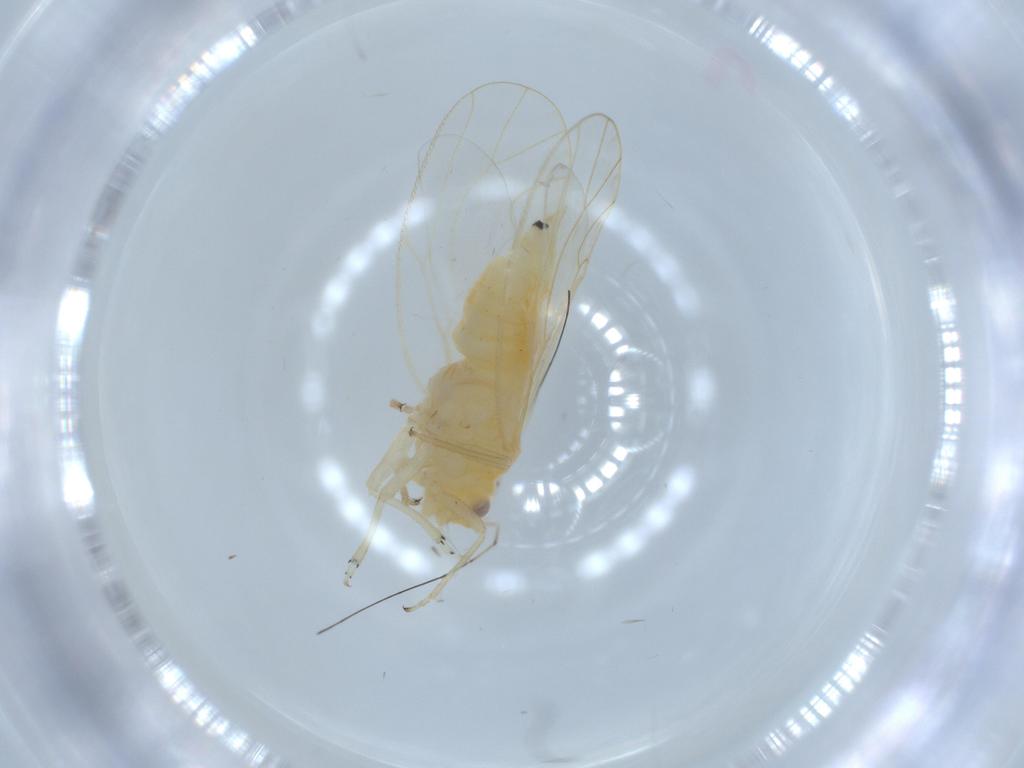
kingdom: Animalia
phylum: Arthropoda
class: Insecta
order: Hemiptera
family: Psyllidae
